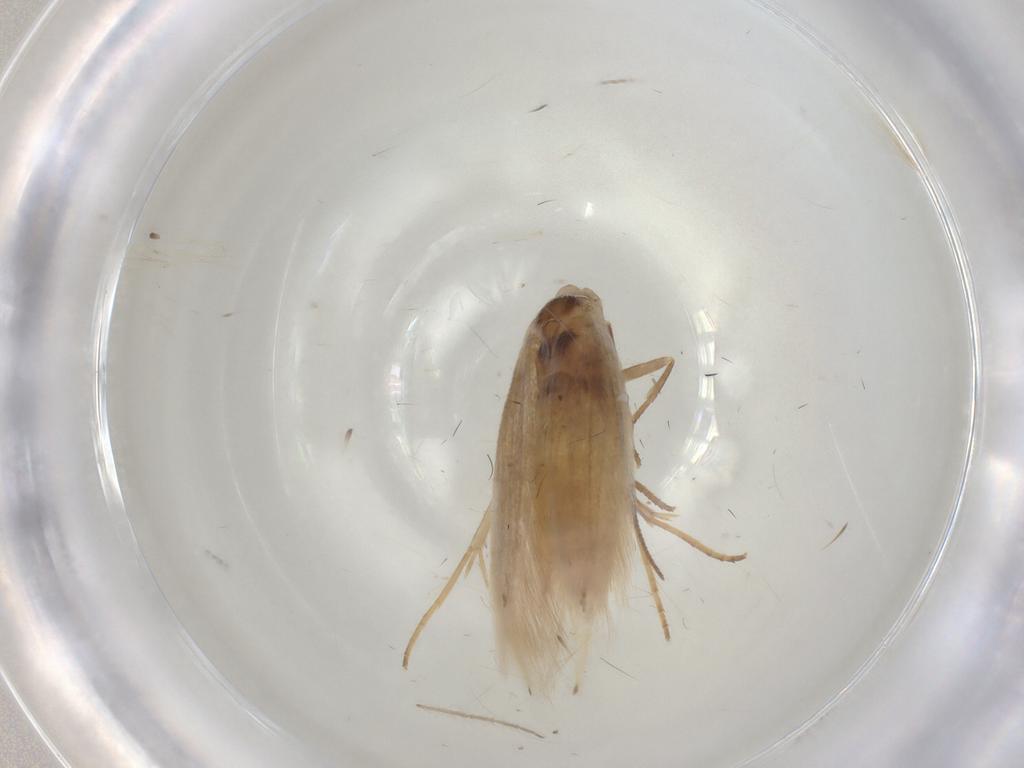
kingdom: Animalia
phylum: Arthropoda
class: Insecta
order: Lepidoptera
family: Bucculatricidae
